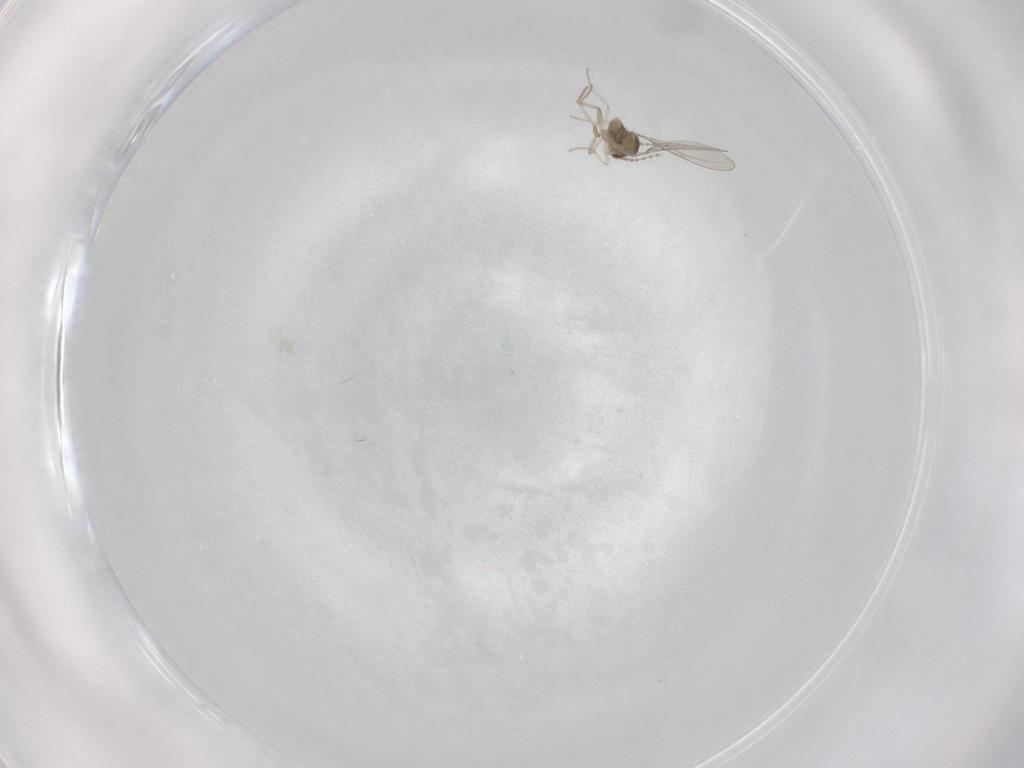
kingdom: Animalia
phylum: Arthropoda
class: Insecta
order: Diptera
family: Cecidomyiidae
